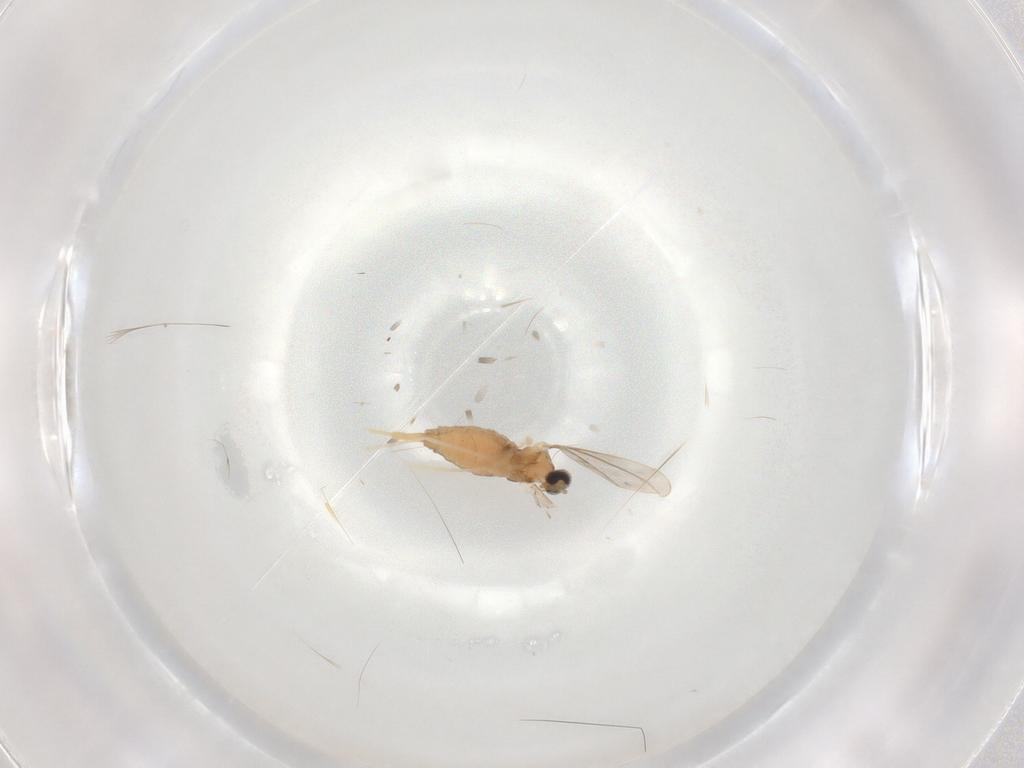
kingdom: Animalia
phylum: Arthropoda
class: Insecta
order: Diptera
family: Cecidomyiidae
